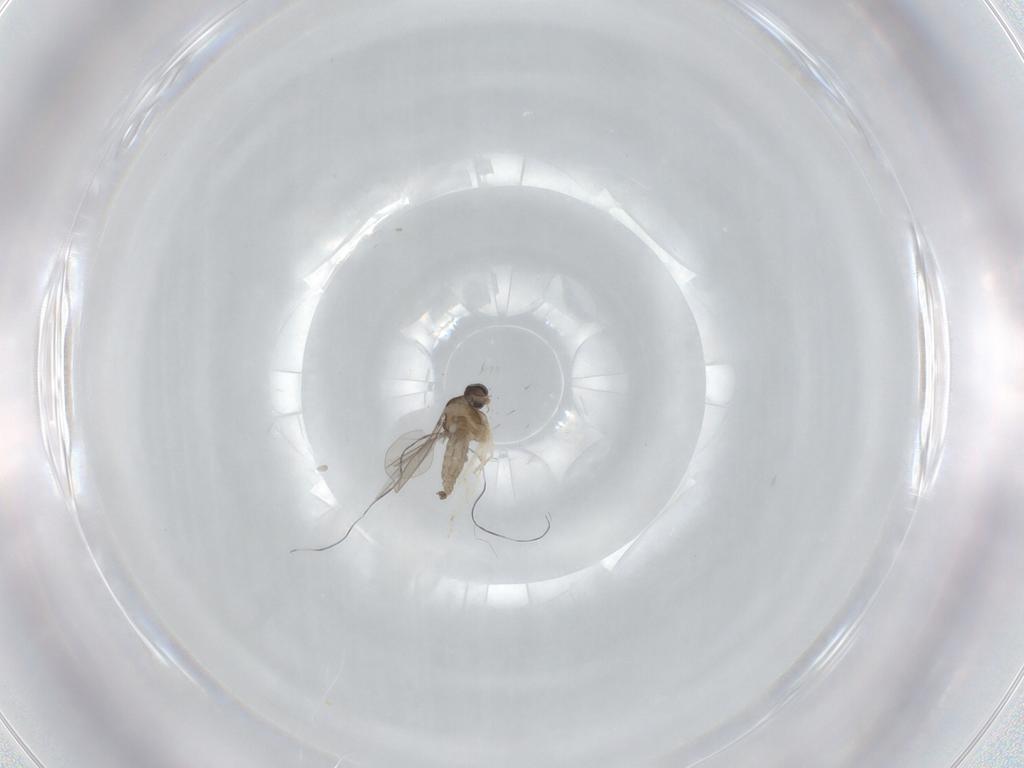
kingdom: Animalia
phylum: Arthropoda
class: Insecta
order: Diptera
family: Cecidomyiidae
